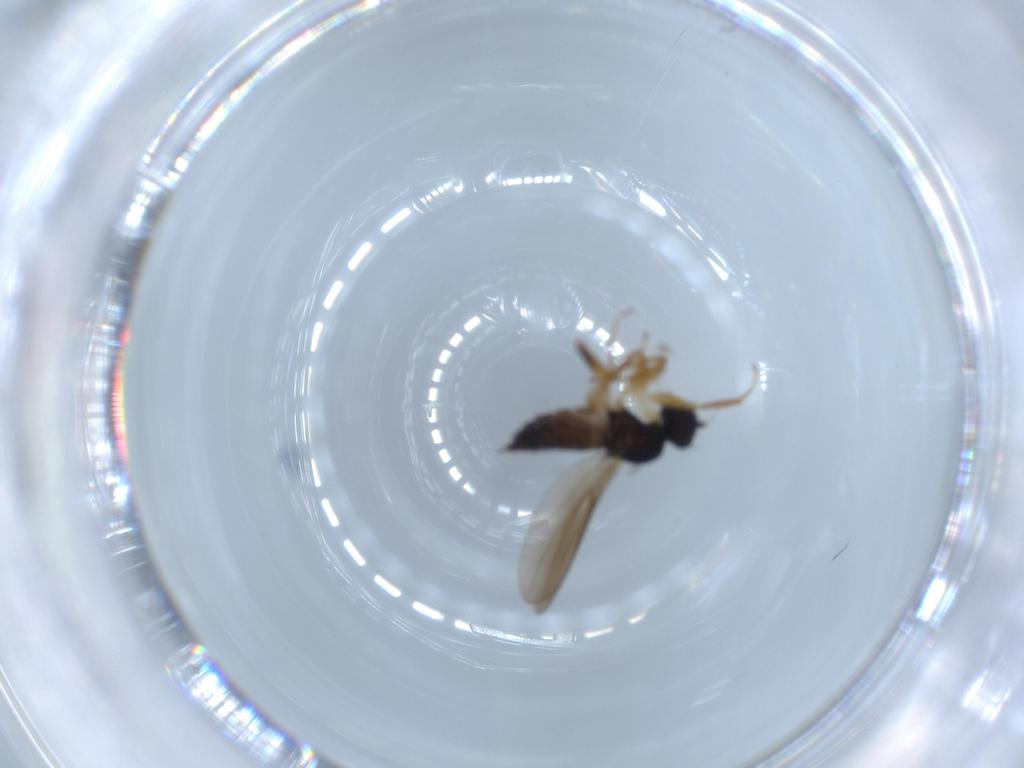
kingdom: Animalia
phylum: Arthropoda
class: Insecta
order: Diptera
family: Hybotidae
